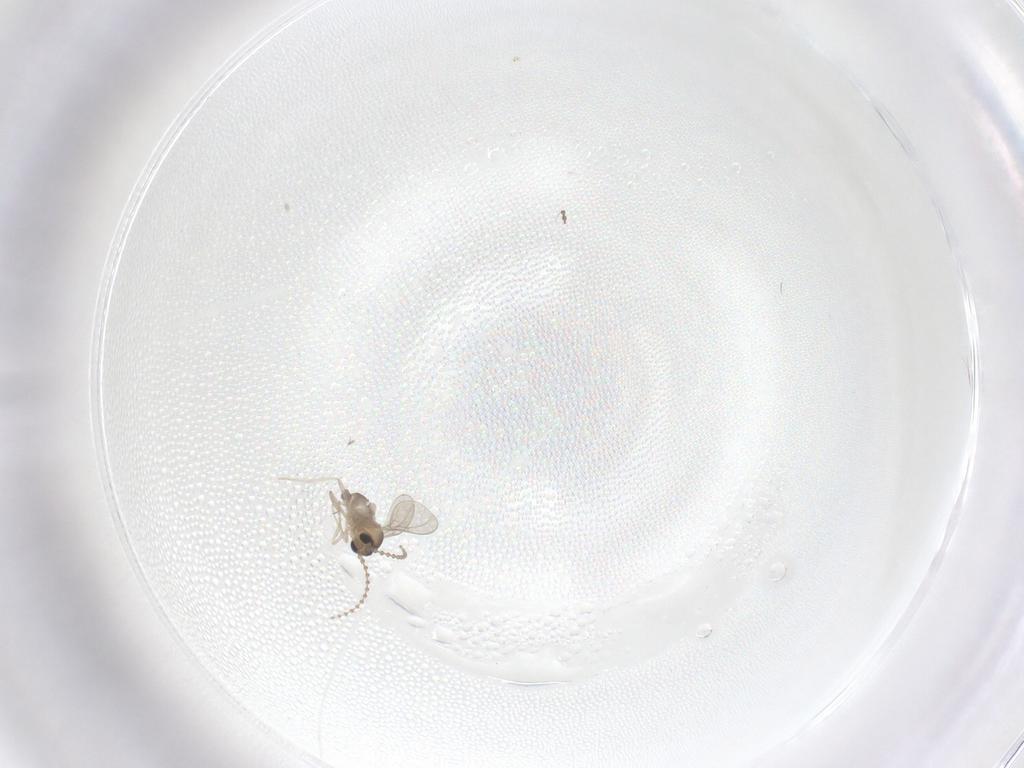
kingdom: Animalia
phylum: Arthropoda
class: Insecta
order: Diptera
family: Cecidomyiidae
